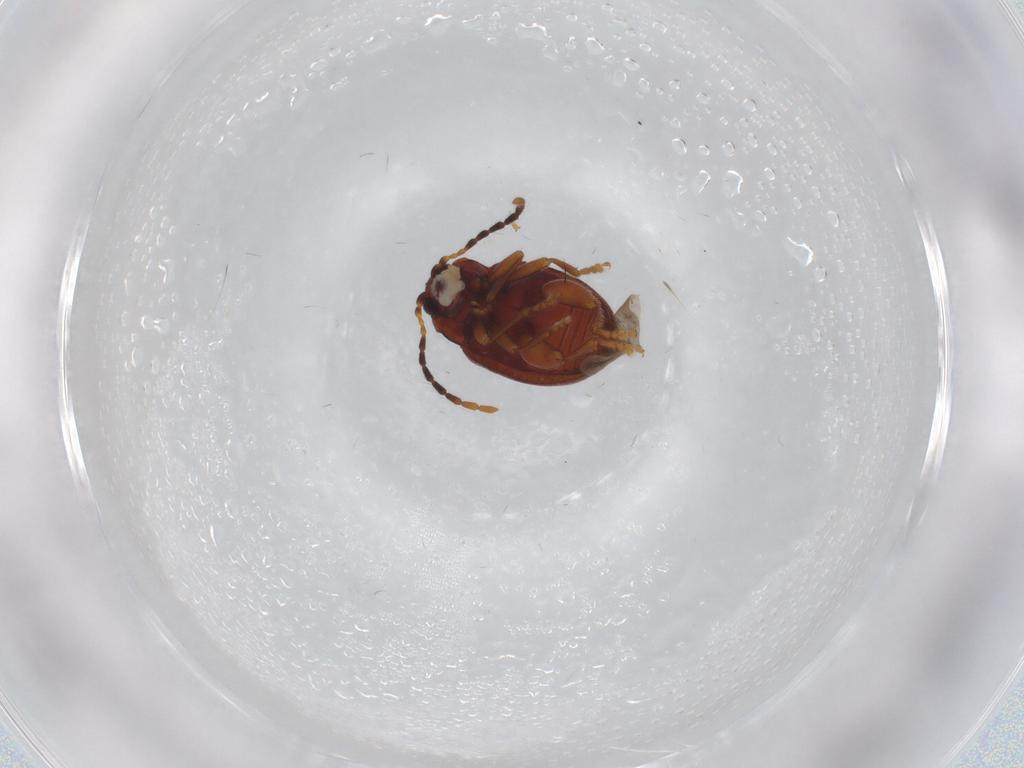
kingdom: Animalia
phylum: Arthropoda
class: Insecta
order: Coleoptera
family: Chrysomelidae
